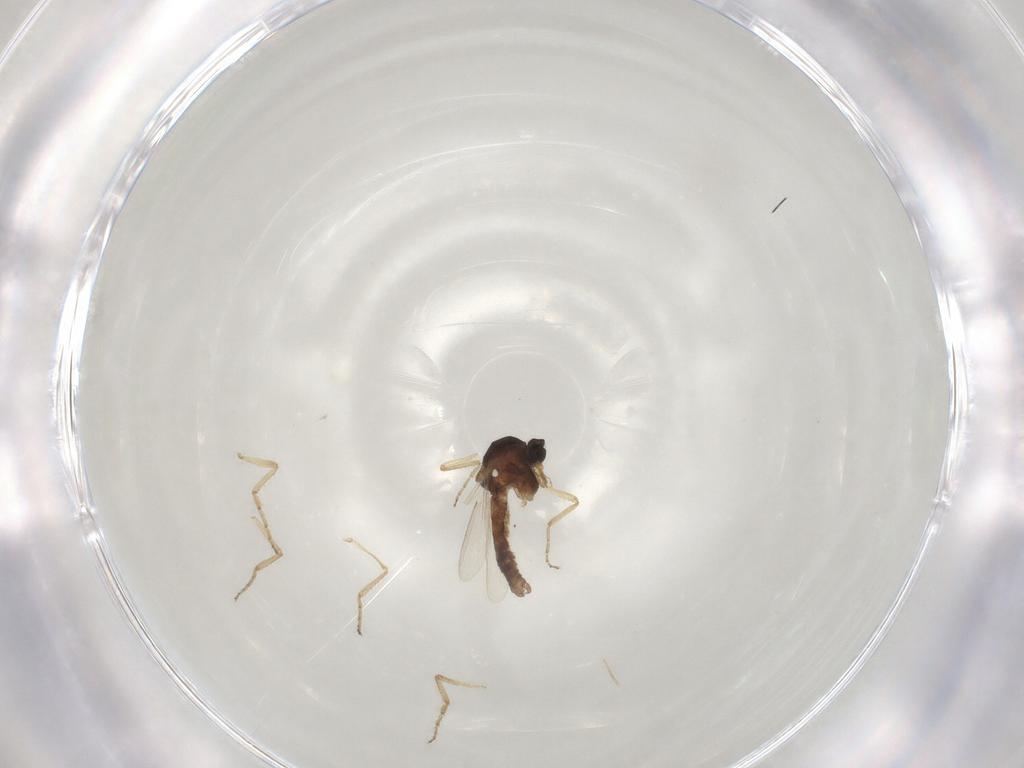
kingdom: Animalia
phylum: Arthropoda
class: Insecta
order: Diptera
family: Ceratopogonidae
